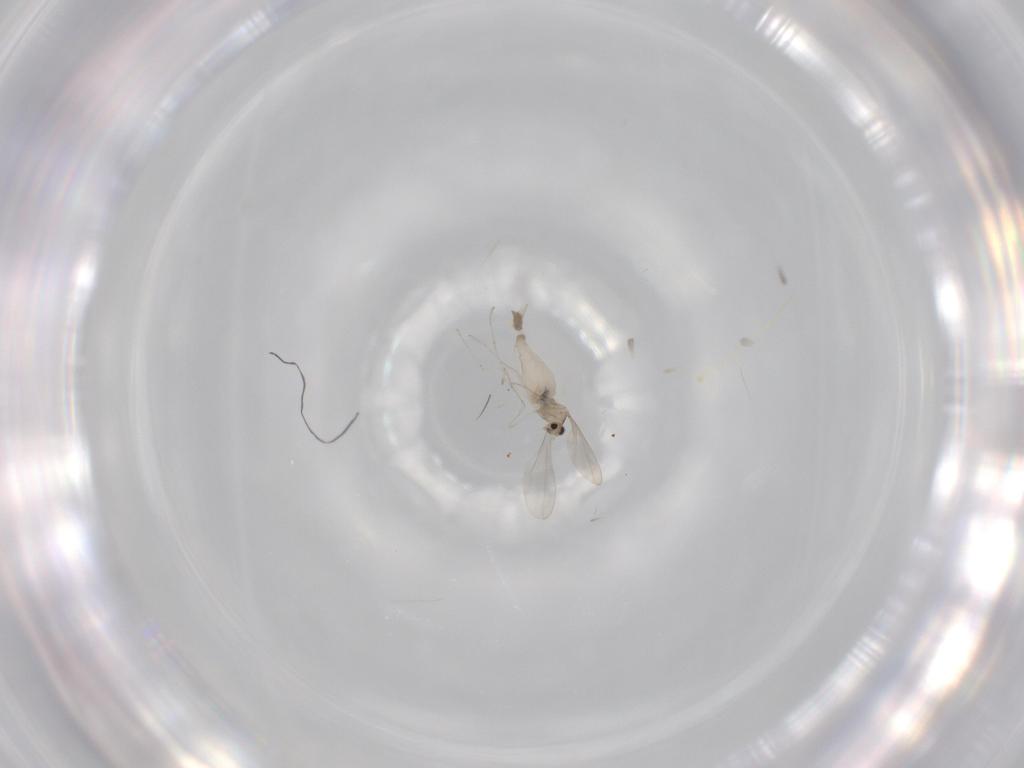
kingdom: Animalia
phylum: Arthropoda
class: Insecta
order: Diptera
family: Cecidomyiidae
